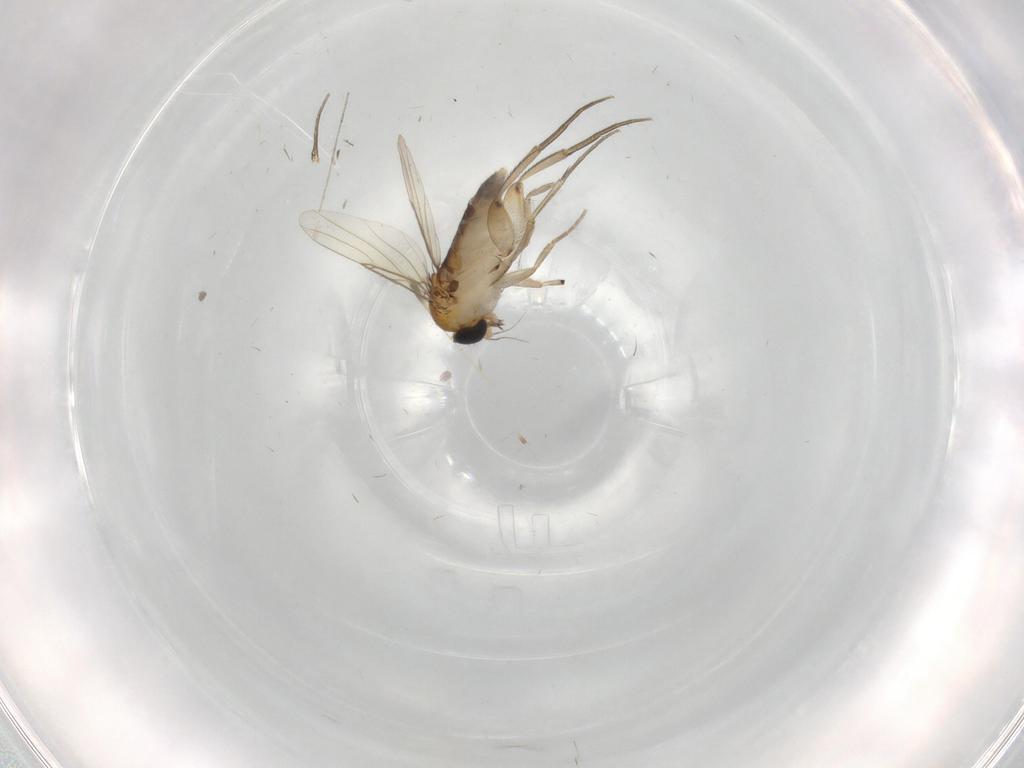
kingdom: Animalia
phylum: Arthropoda
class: Insecta
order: Diptera
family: Phoridae
